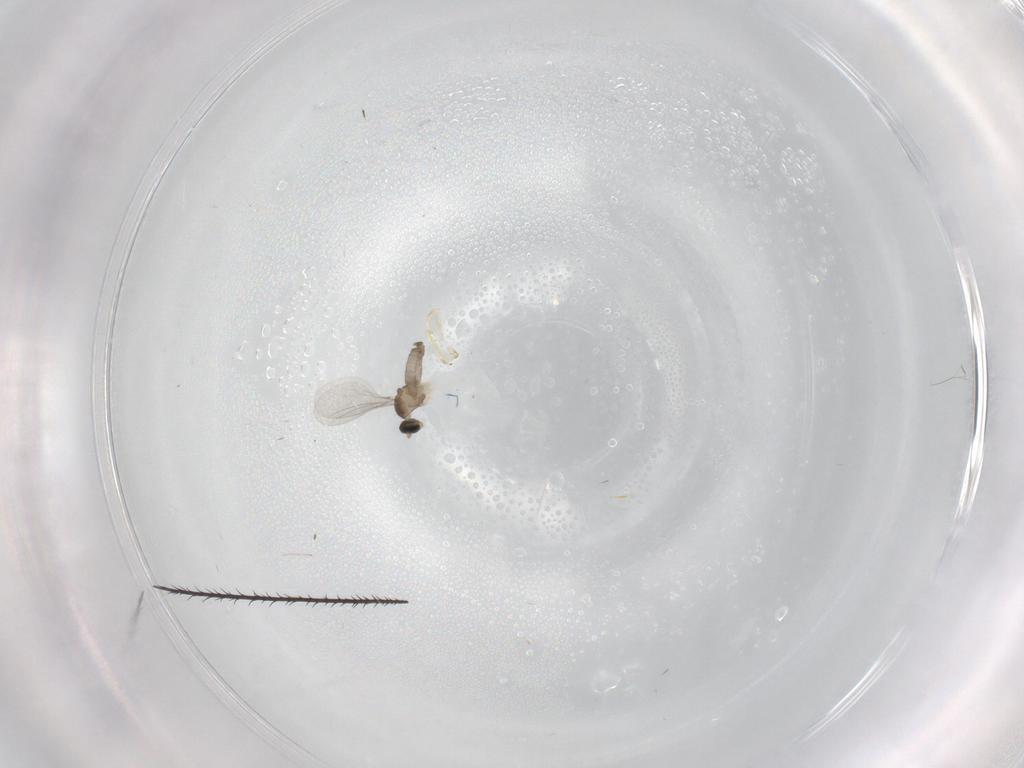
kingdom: Animalia
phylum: Arthropoda
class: Insecta
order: Diptera
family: Cecidomyiidae
